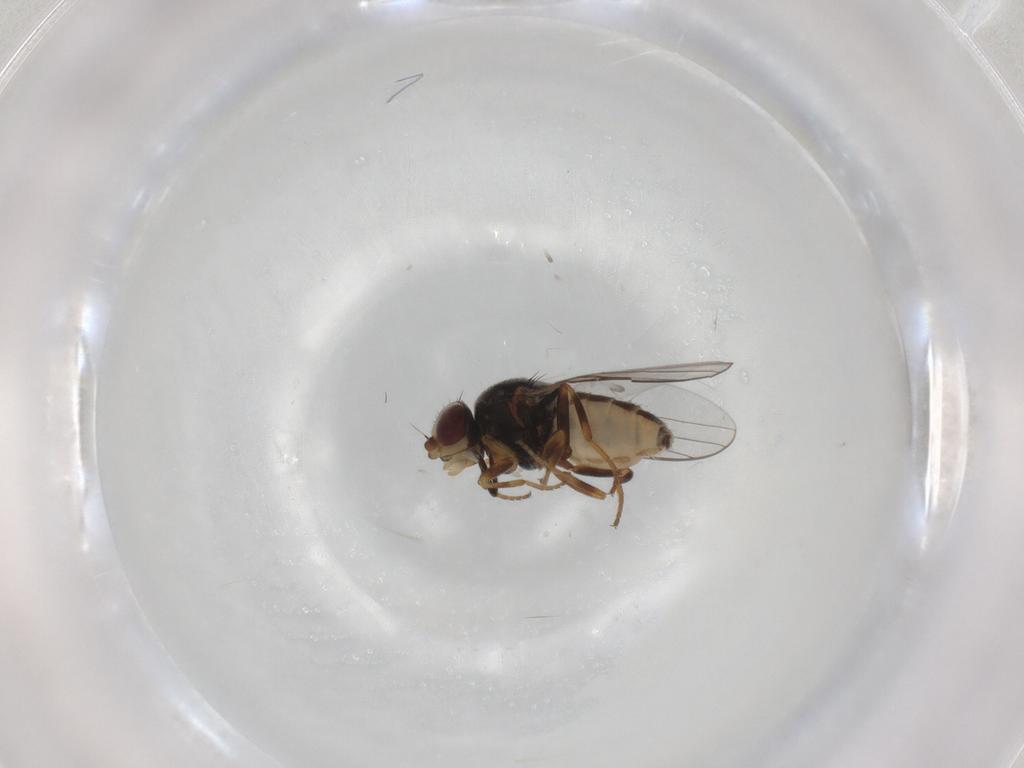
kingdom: Animalia
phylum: Arthropoda
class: Insecta
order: Diptera
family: Chloropidae
